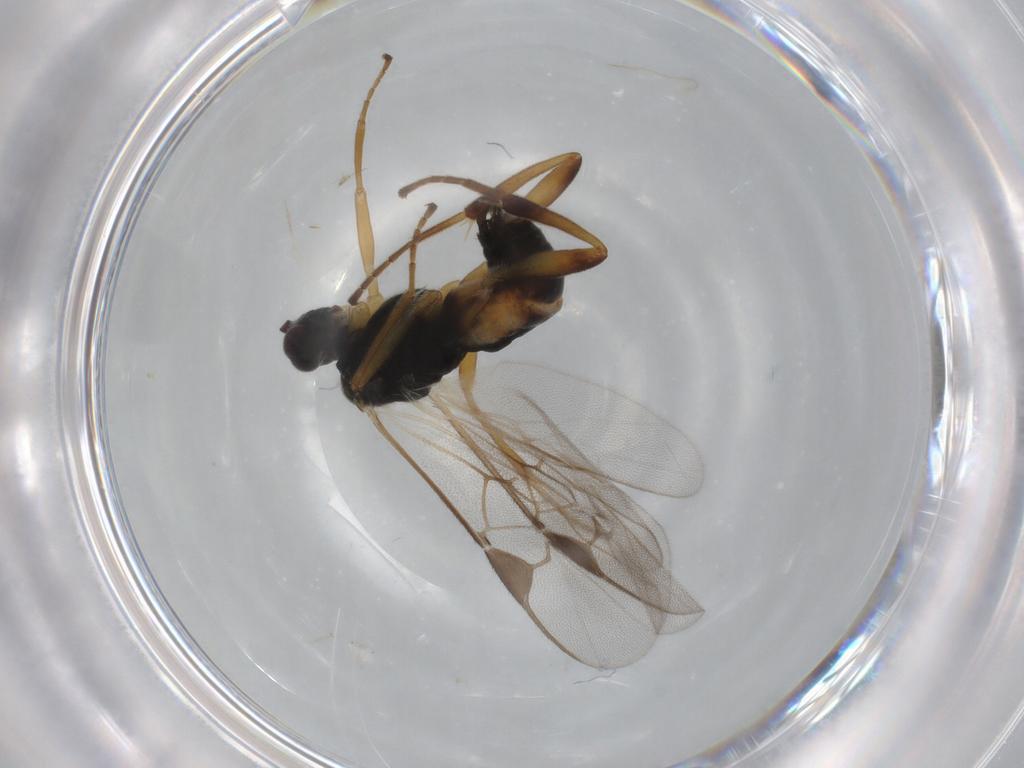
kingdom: Animalia
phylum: Arthropoda
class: Insecta
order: Hymenoptera
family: Braconidae
